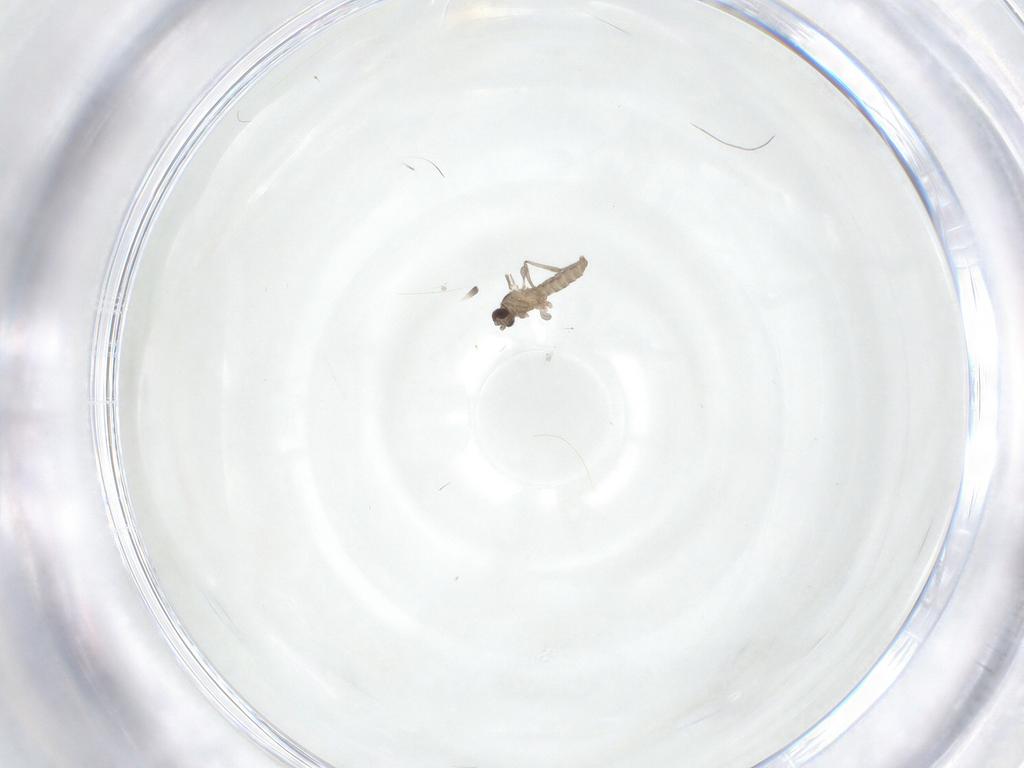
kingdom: Animalia
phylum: Arthropoda
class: Insecta
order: Diptera
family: Cecidomyiidae
